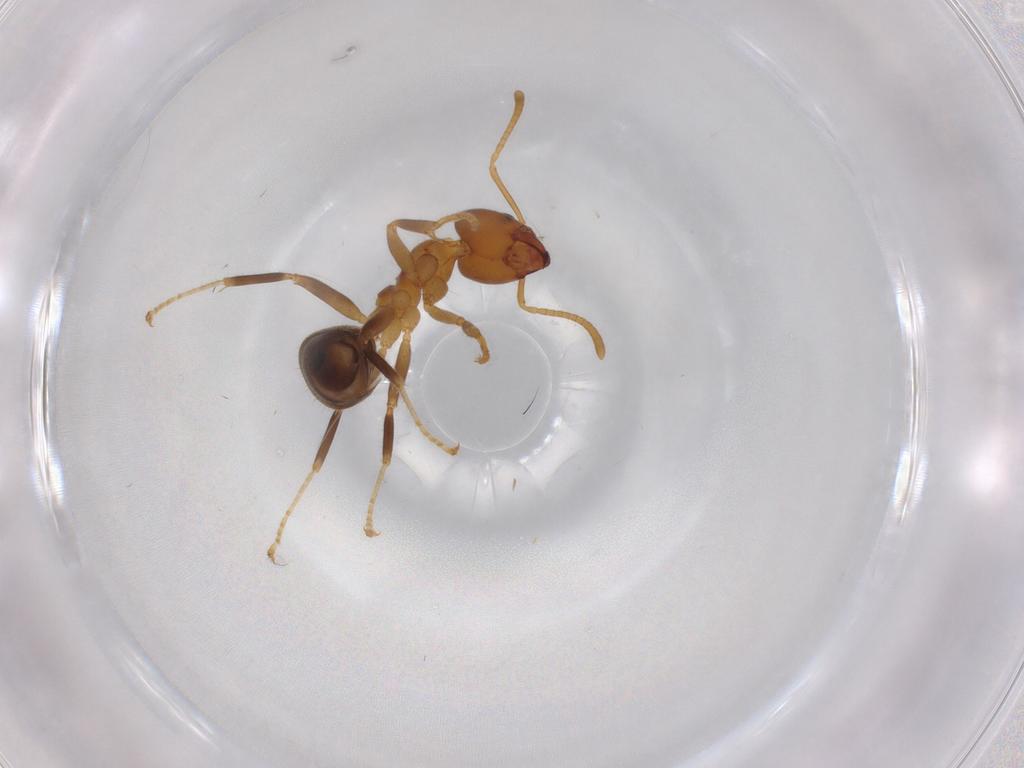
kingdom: Animalia
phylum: Arthropoda
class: Insecta
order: Hymenoptera
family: Formicidae
